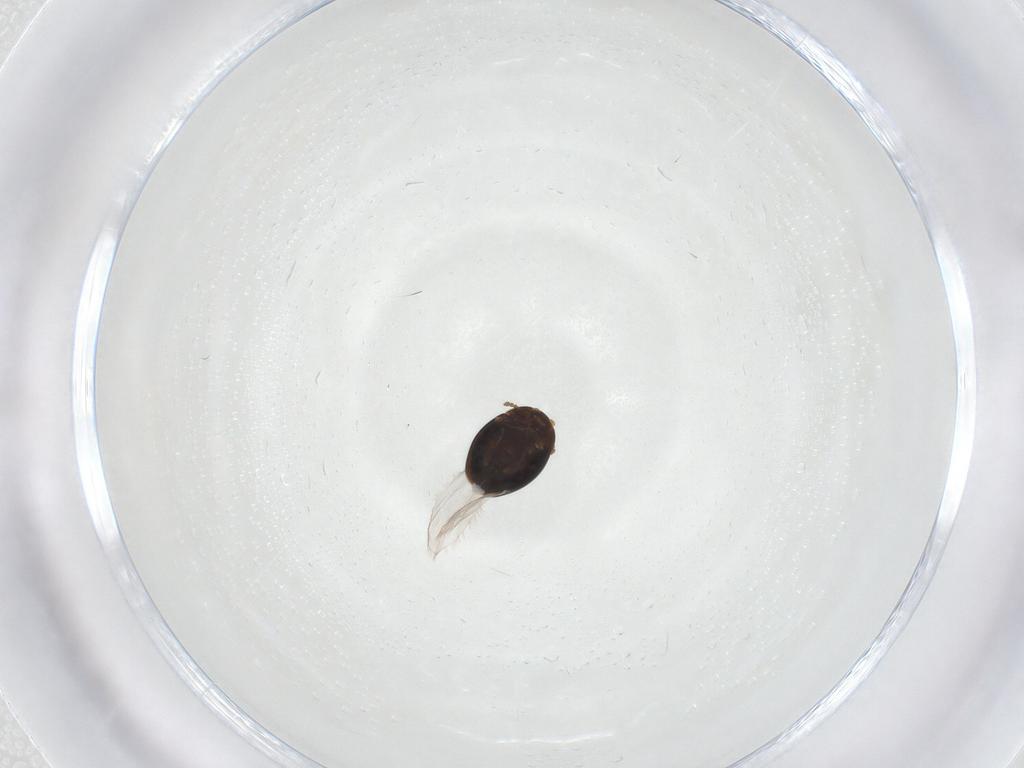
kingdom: Animalia
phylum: Arthropoda
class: Insecta
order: Coleoptera
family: Corylophidae
